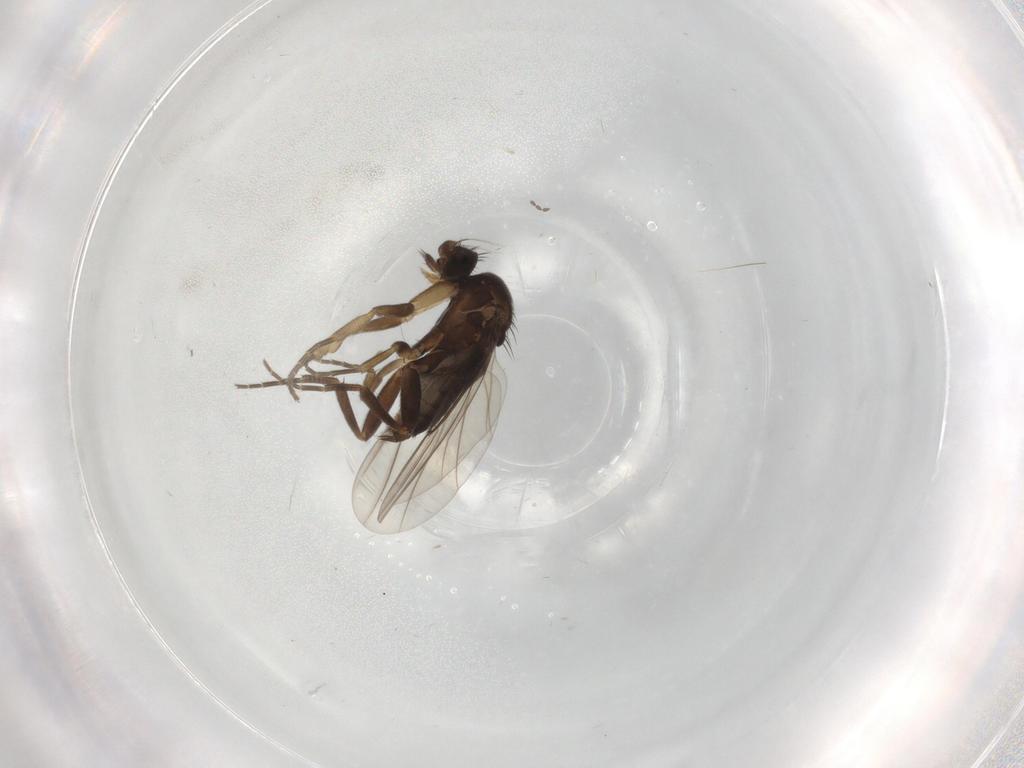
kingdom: Animalia
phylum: Arthropoda
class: Insecta
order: Diptera
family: Phoridae
